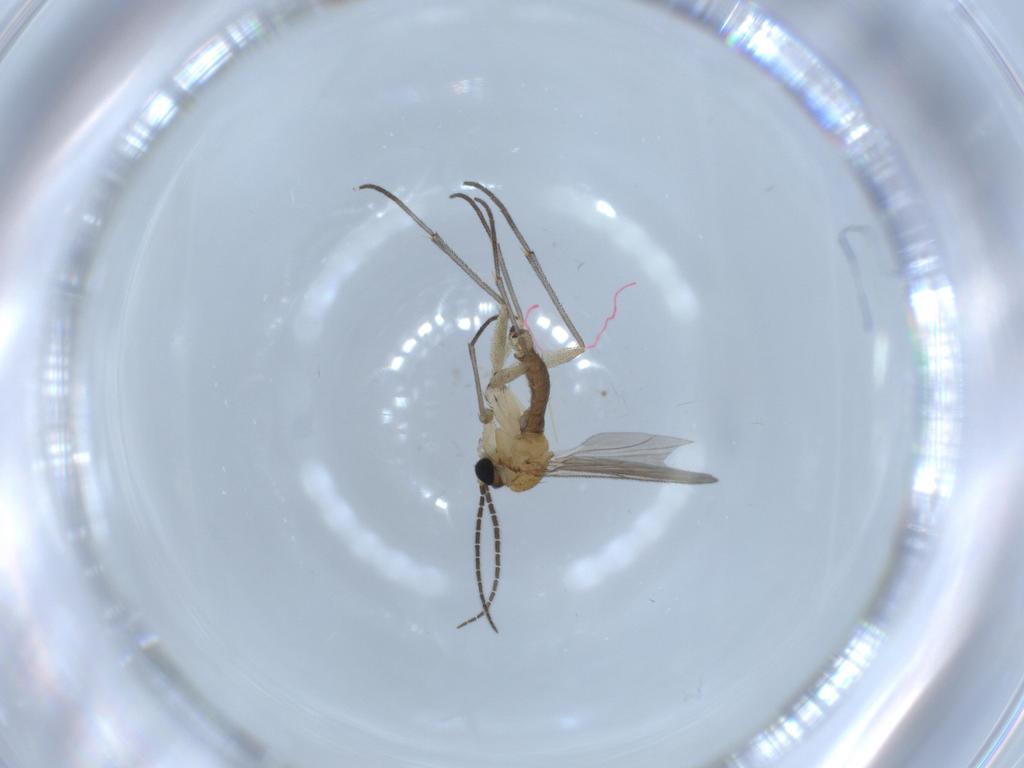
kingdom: Animalia
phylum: Arthropoda
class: Insecta
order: Diptera
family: Sciaridae
